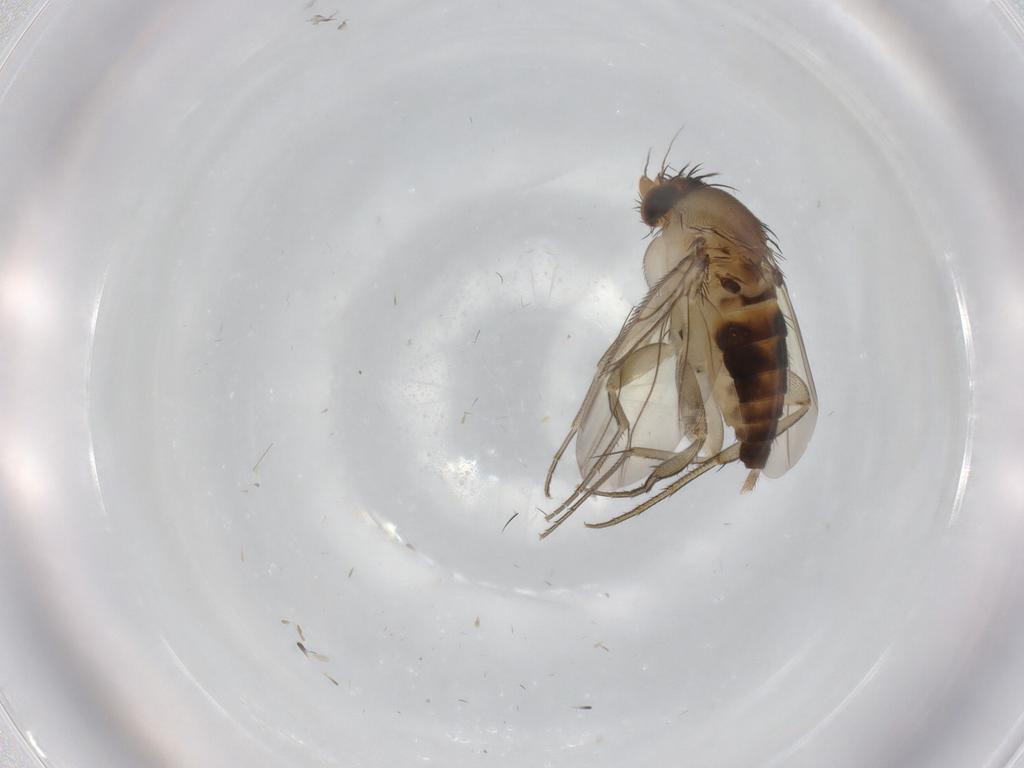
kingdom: Animalia
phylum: Arthropoda
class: Insecta
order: Diptera
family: Phoridae
